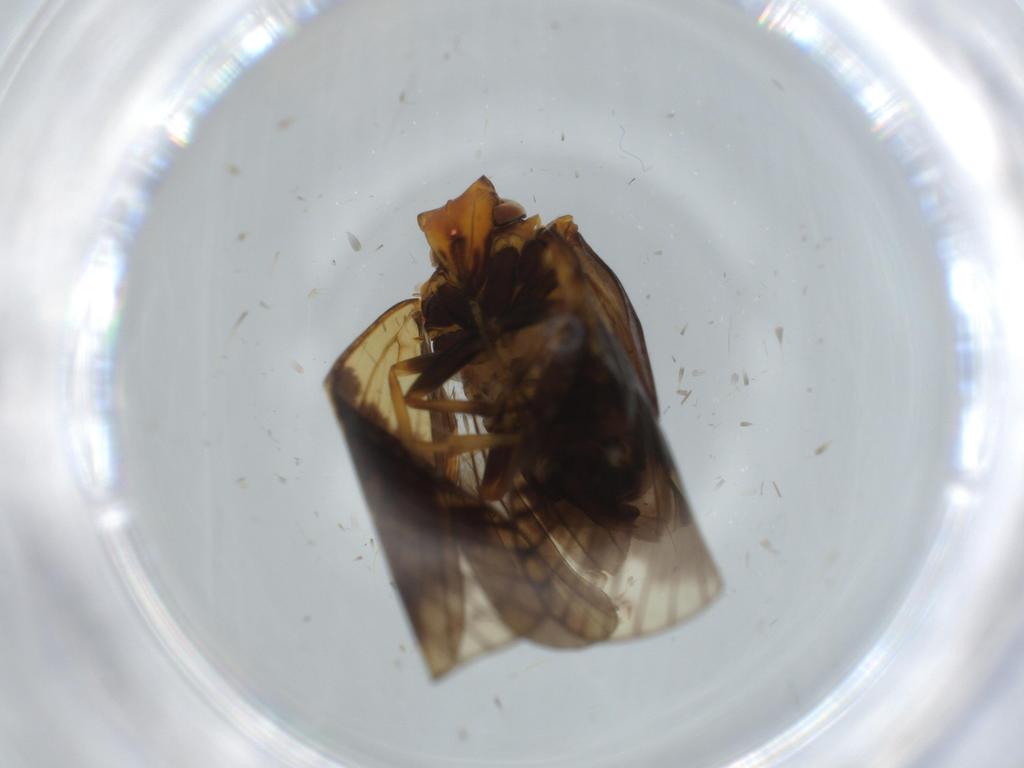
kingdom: Animalia
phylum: Arthropoda
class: Insecta
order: Hemiptera
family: Cixiidae
